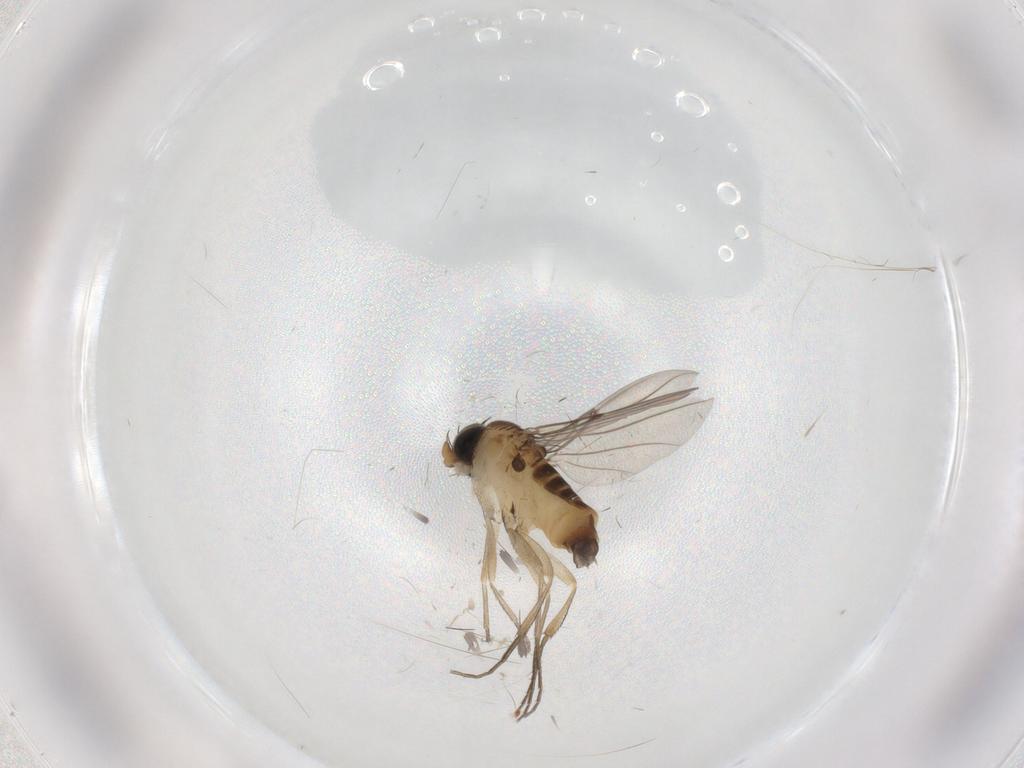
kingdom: Animalia
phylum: Arthropoda
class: Insecta
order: Diptera
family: Phoridae
